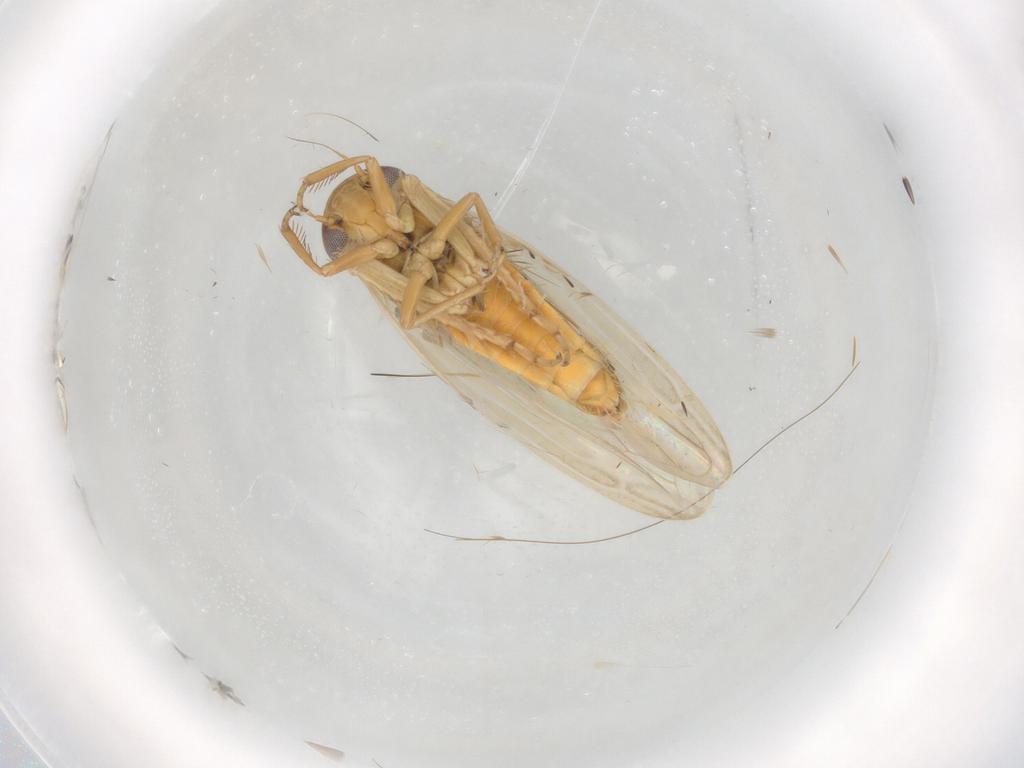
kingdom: Animalia
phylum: Arthropoda
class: Insecta
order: Hemiptera
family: Cicadellidae
